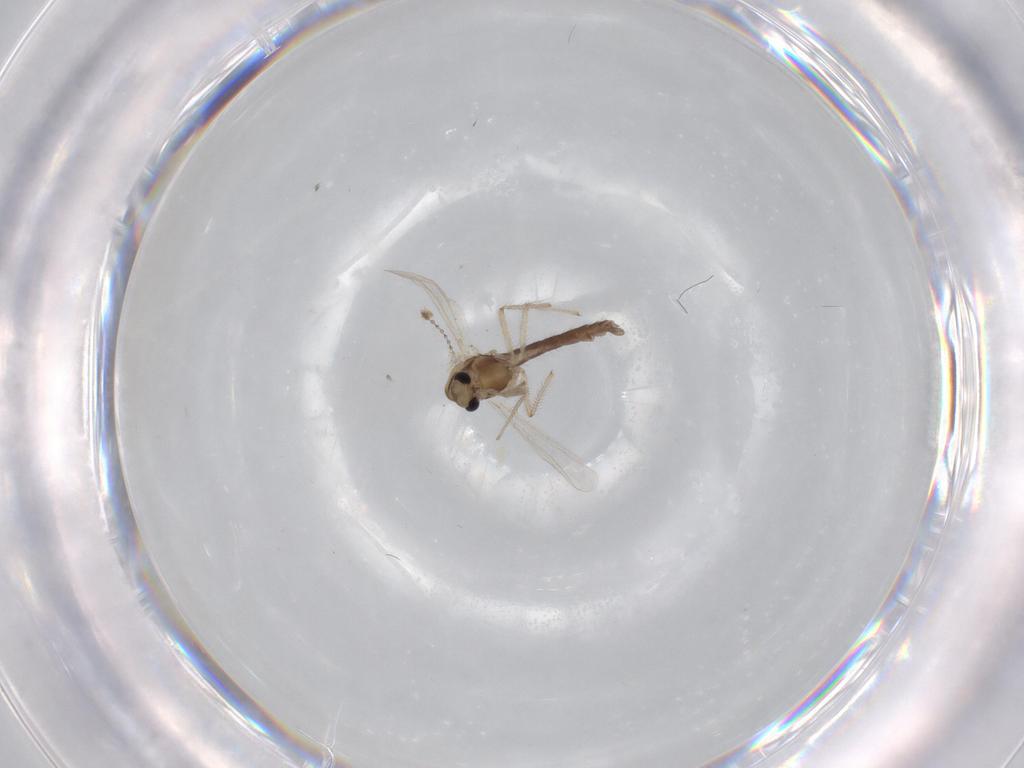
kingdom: Animalia
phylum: Arthropoda
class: Insecta
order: Diptera
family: Chironomidae
